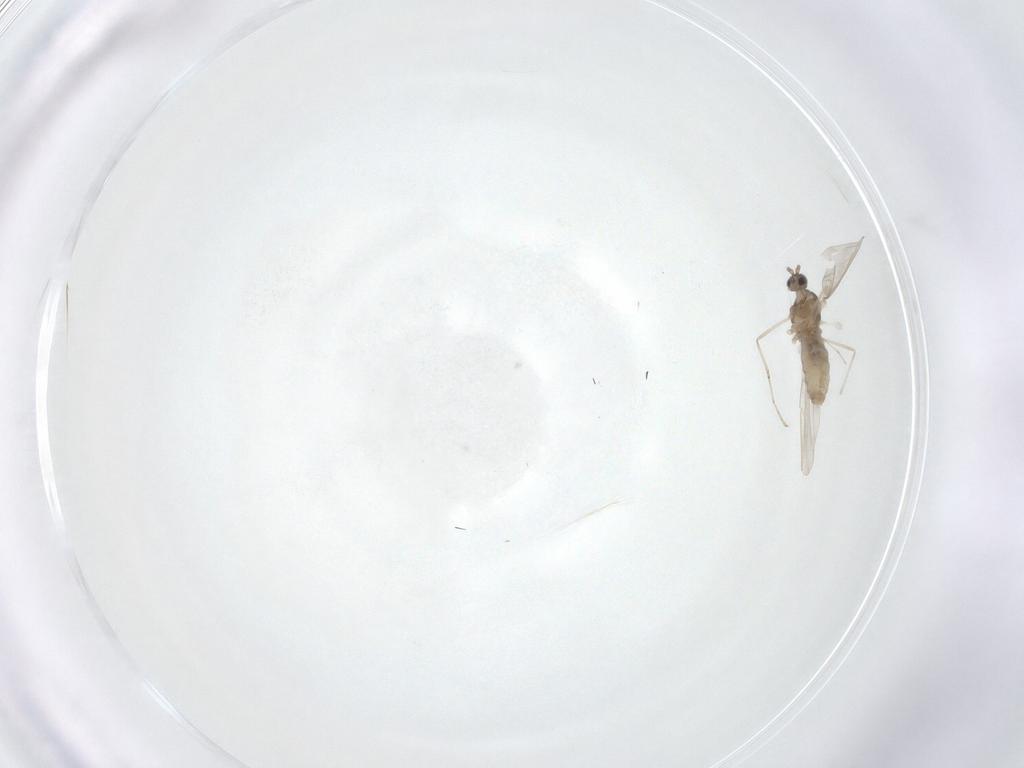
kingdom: Animalia
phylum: Arthropoda
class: Insecta
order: Diptera
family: Cecidomyiidae
